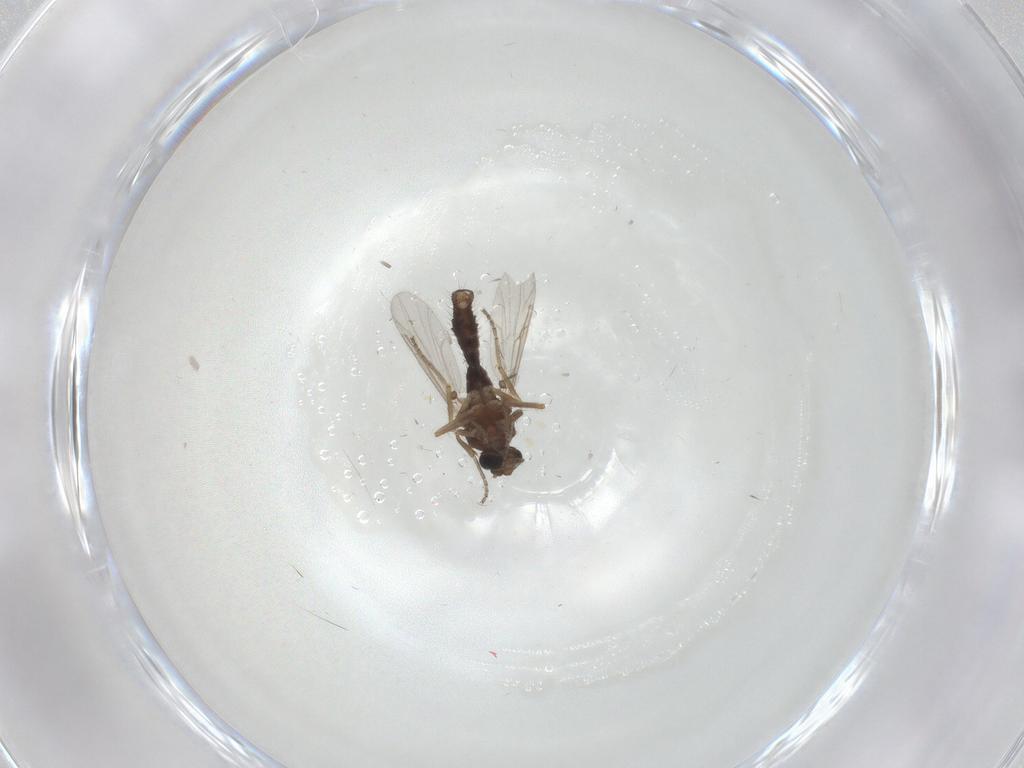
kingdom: Animalia
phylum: Arthropoda
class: Insecta
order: Diptera
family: Ceratopogonidae
